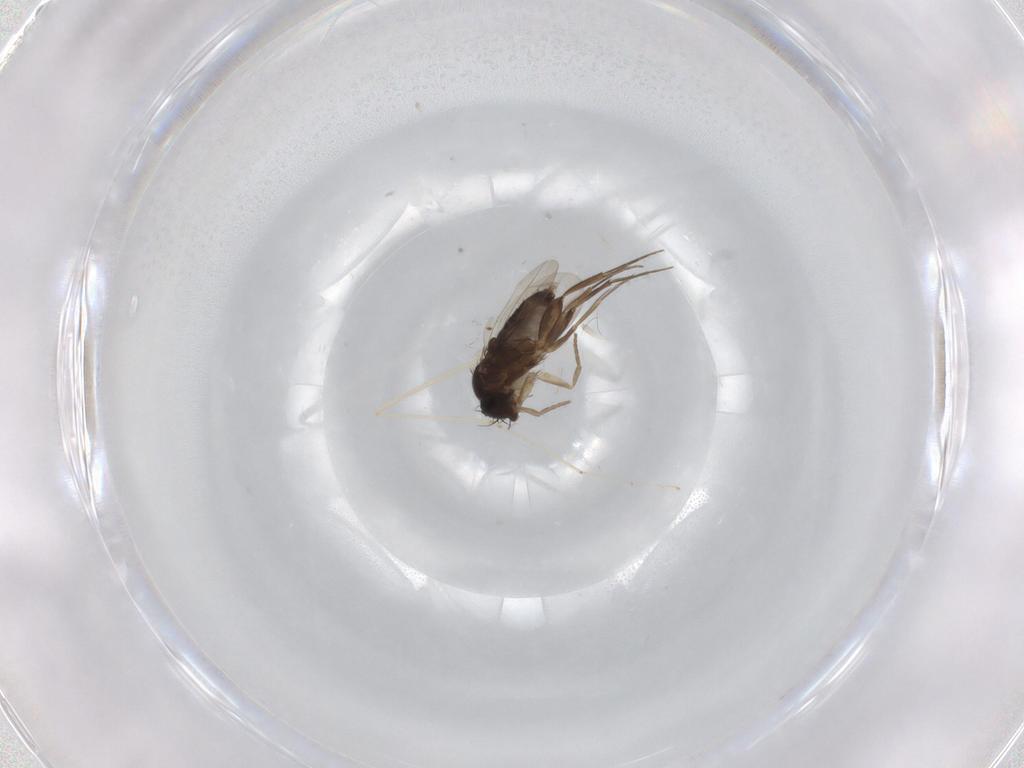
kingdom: Animalia
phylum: Arthropoda
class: Insecta
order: Diptera
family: Phoridae
